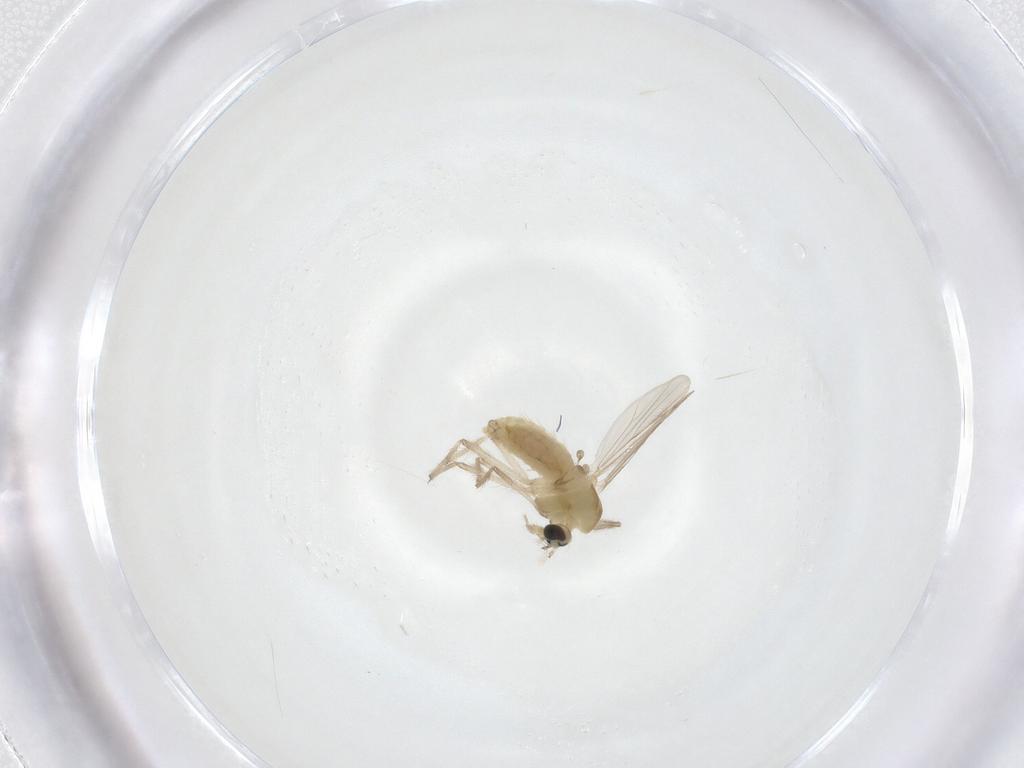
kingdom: Animalia
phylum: Arthropoda
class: Insecta
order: Diptera
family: Chironomidae
